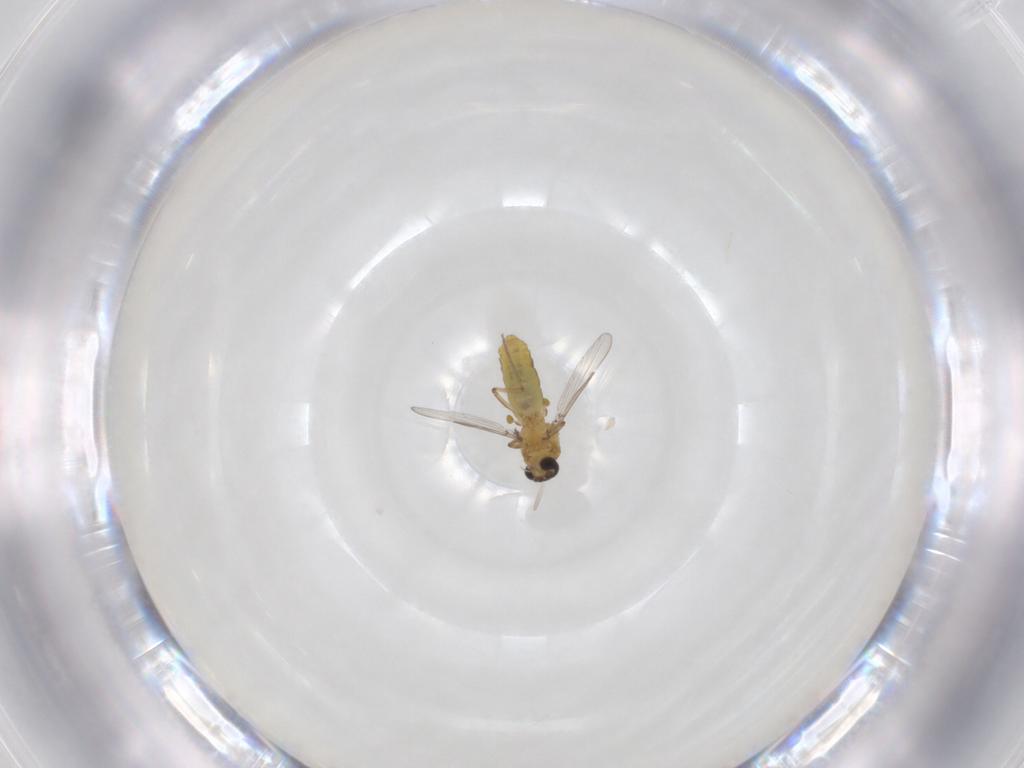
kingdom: Animalia
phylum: Arthropoda
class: Insecta
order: Diptera
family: Ceratopogonidae
